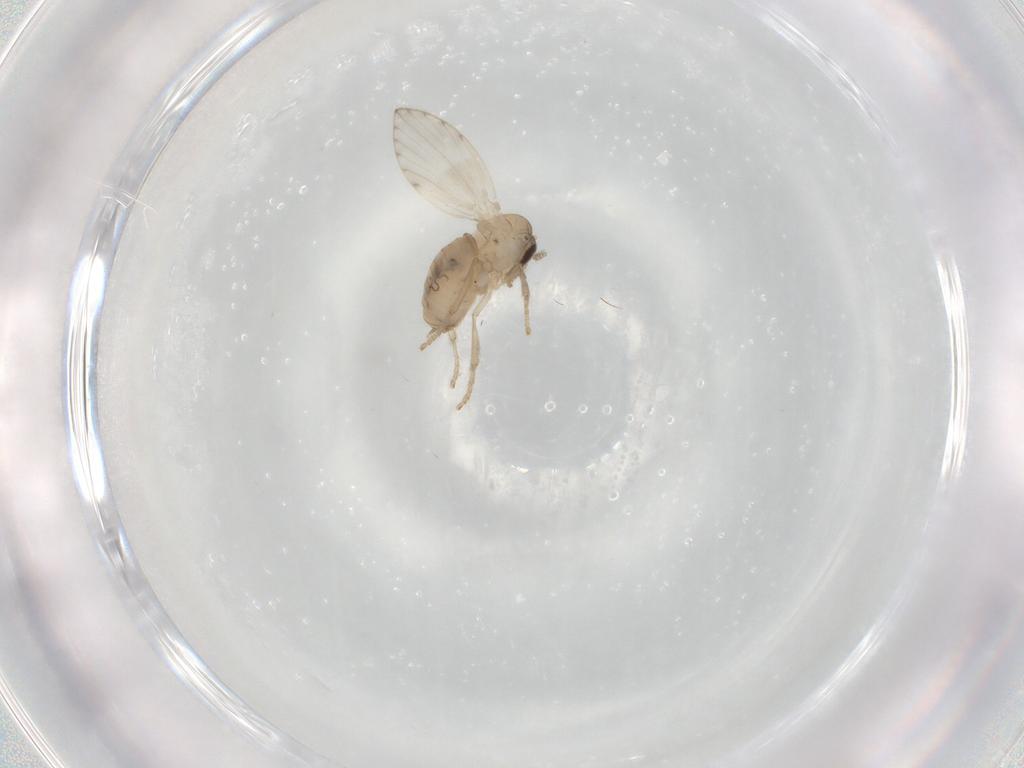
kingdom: Animalia
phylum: Arthropoda
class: Insecta
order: Diptera
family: Psychodidae
